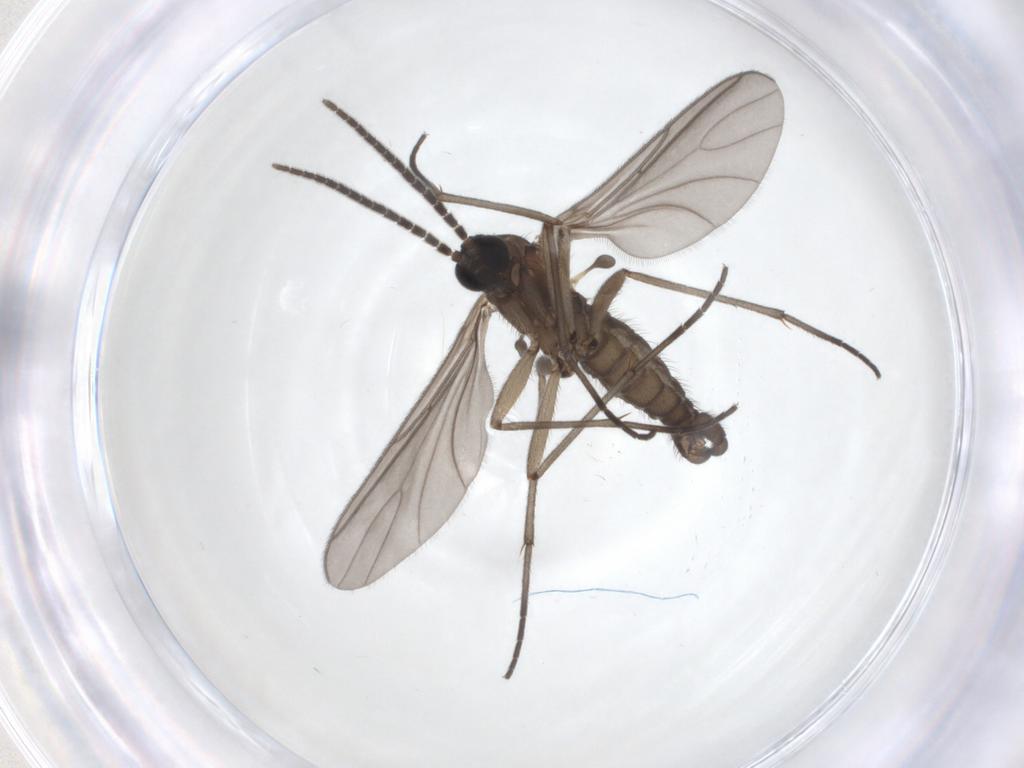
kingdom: Animalia
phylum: Arthropoda
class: Insecta
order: Diptera
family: Sciaridae
